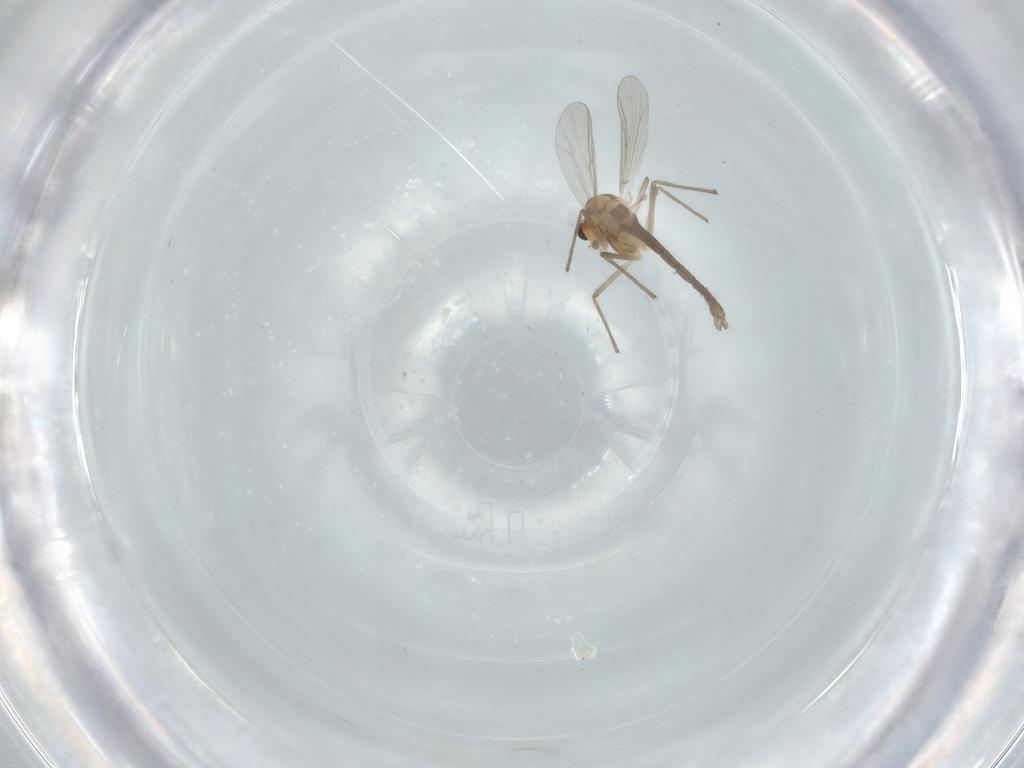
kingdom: Animalia
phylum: Arthropoda
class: Insecta
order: Diptera
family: Chironomidae
